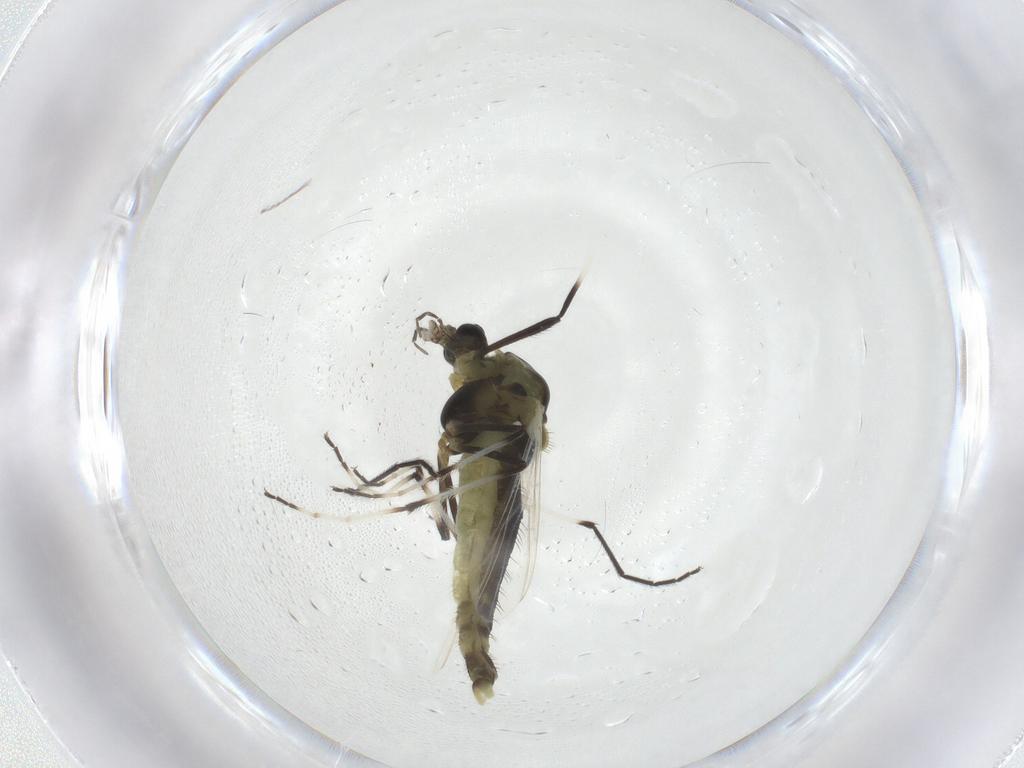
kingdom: Animalia
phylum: Arthropoda
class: Insecta
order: Diptera
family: Chironomidae
